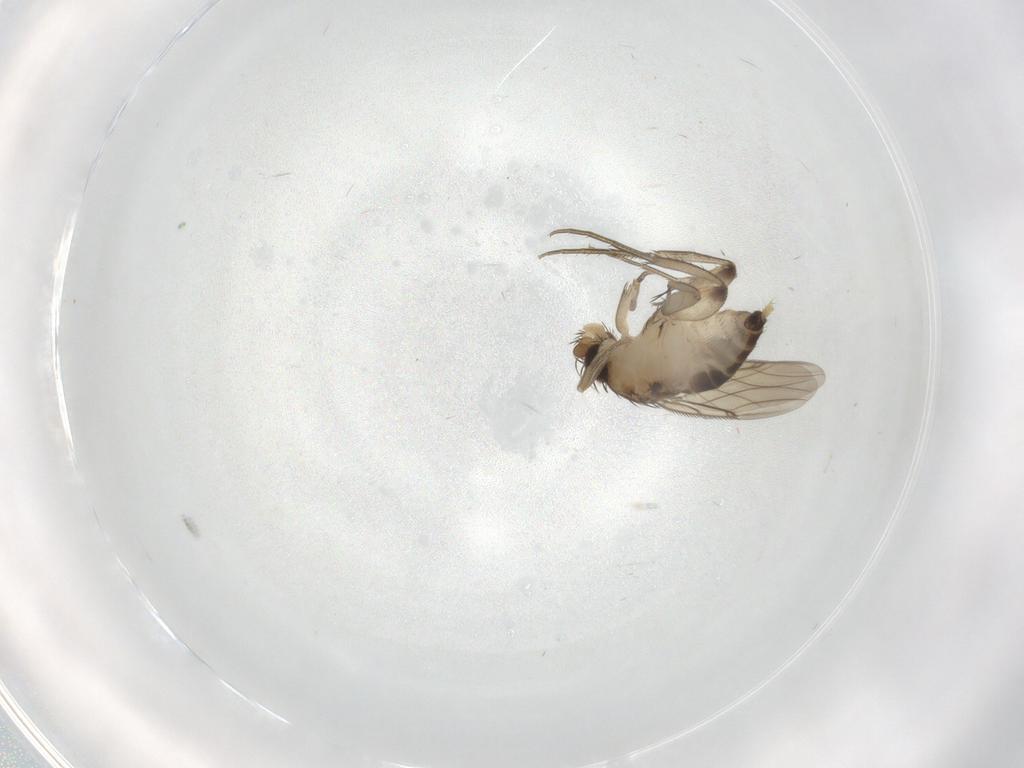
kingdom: Animalia
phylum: Arthropoda
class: Insecta
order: Diptera
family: Phoridae
